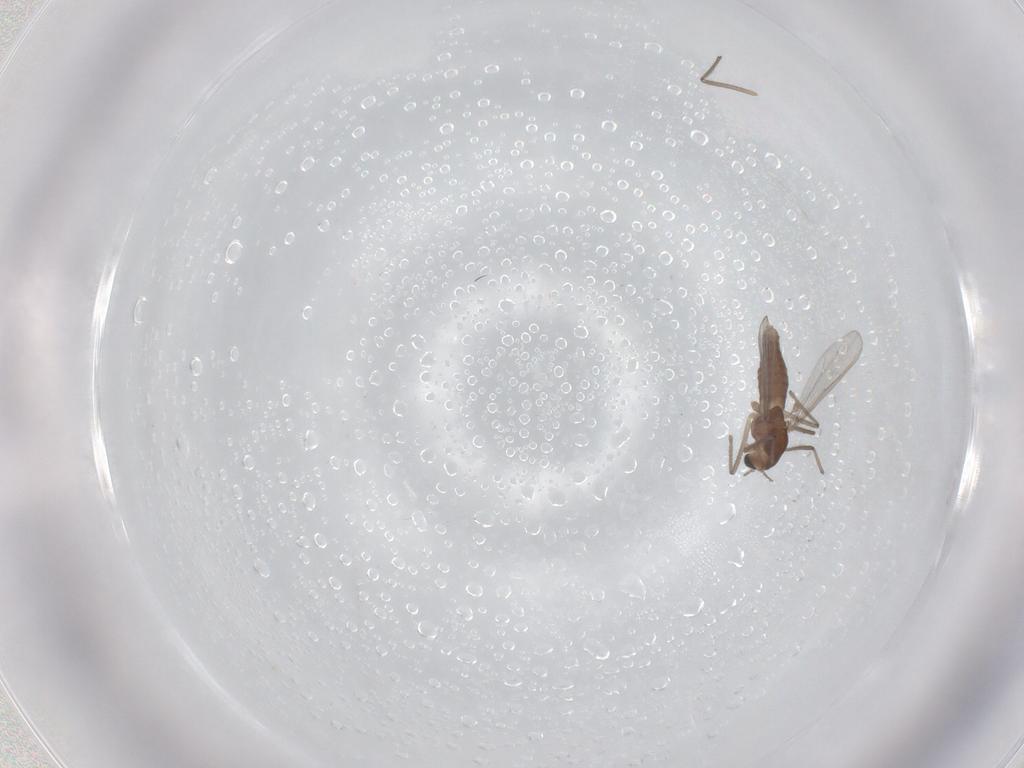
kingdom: Animalia
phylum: Arthropoda
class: Insecta
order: Diptera
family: Chironomidae
